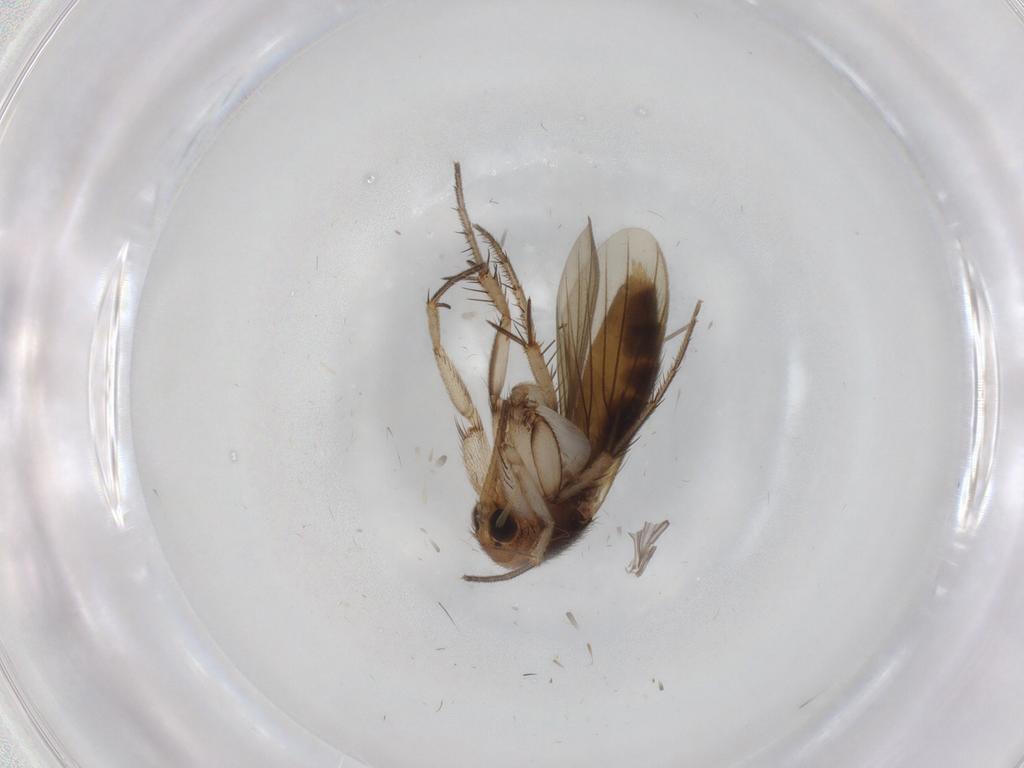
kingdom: Animalia
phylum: Arthropoda
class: Insecta
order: Diptera
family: Mycetophilidae
